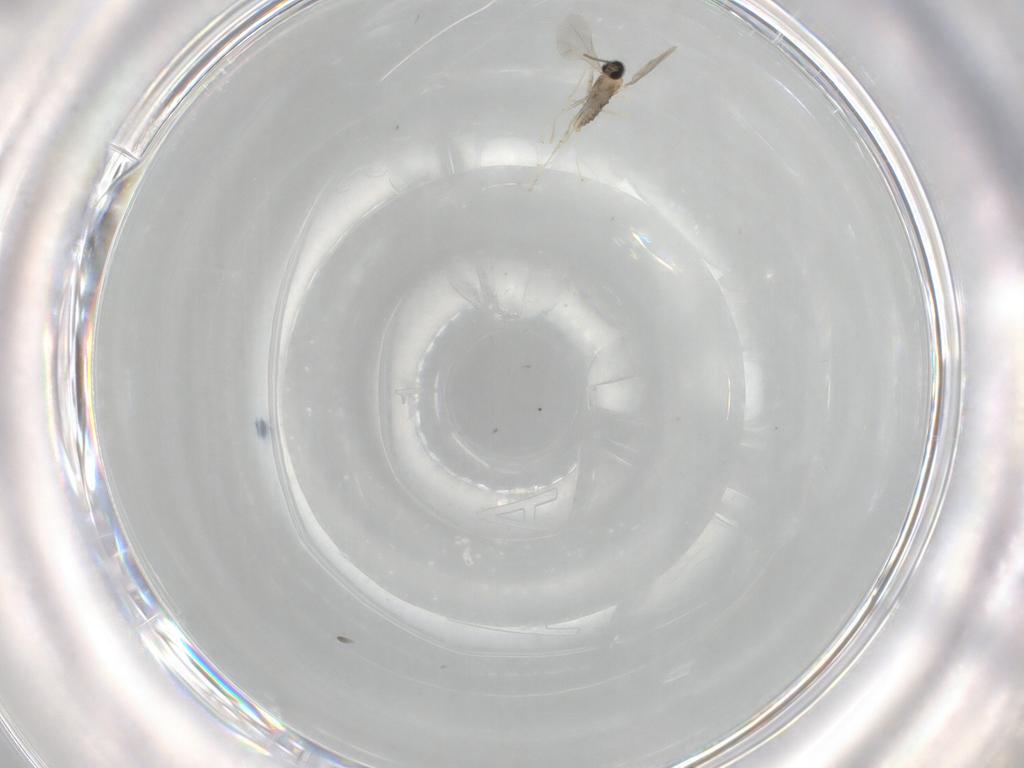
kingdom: Animalia
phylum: Arthropoda
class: Insecta
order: Diptera
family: Cecidomyiidae
